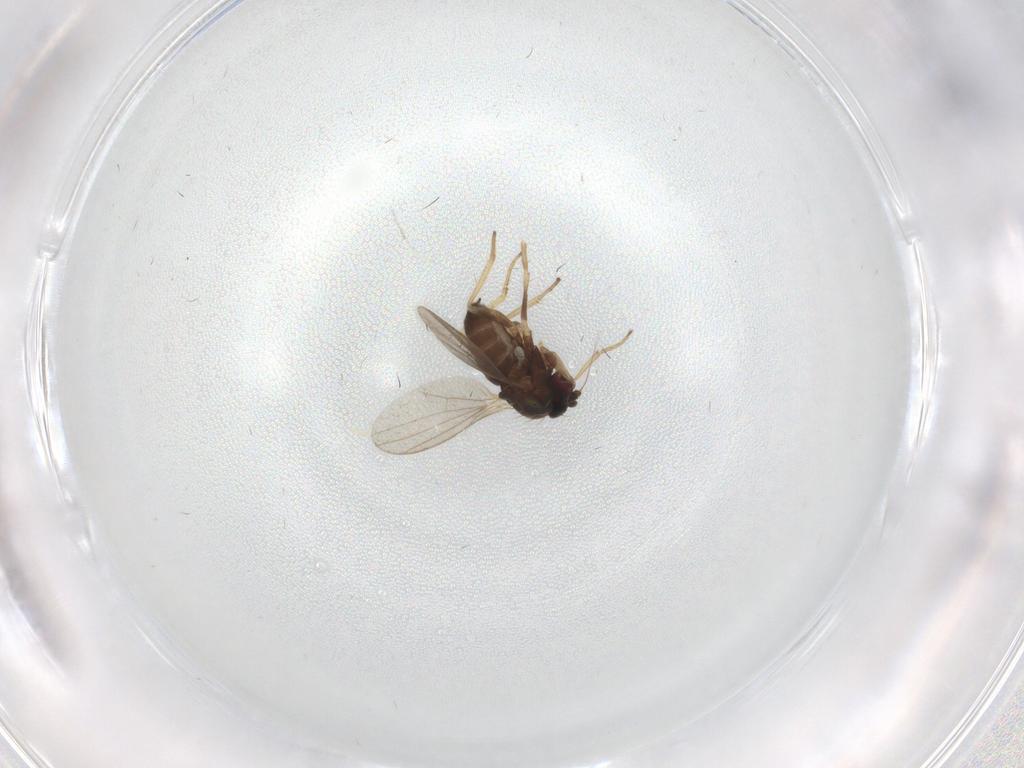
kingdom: Animalia
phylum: Arthropoda
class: Insecta
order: Diptera
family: Dolichopodidae
